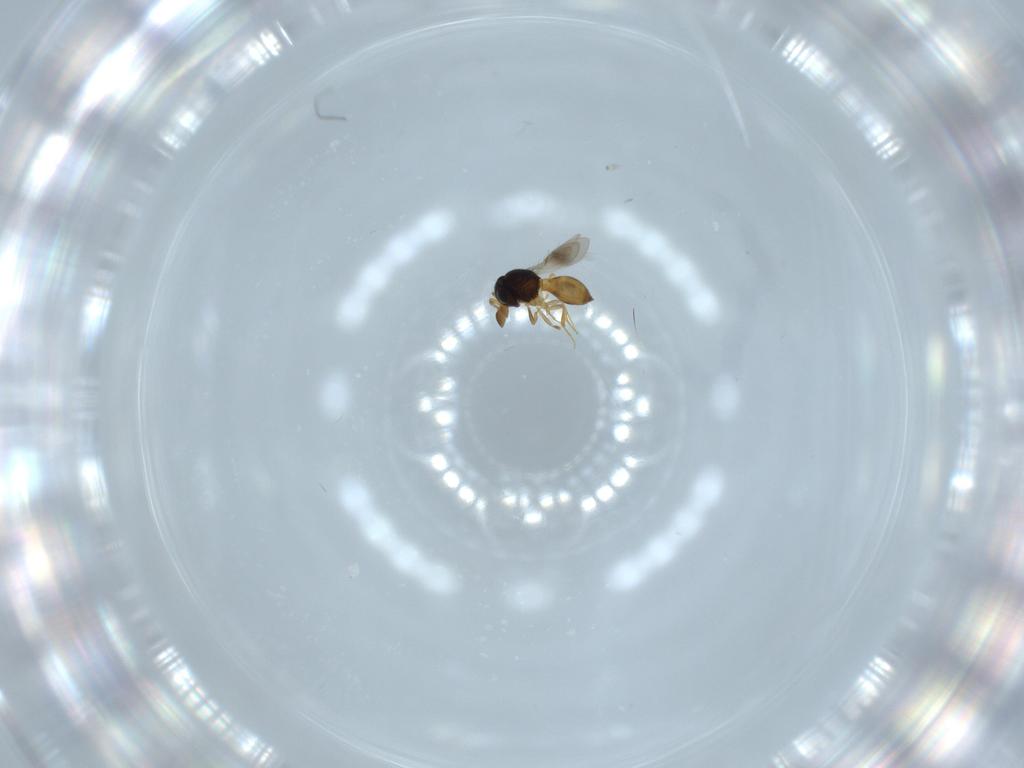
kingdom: Animalia
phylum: Arthropoda
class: Insecta
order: Hymenoptera
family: Scelionidae
